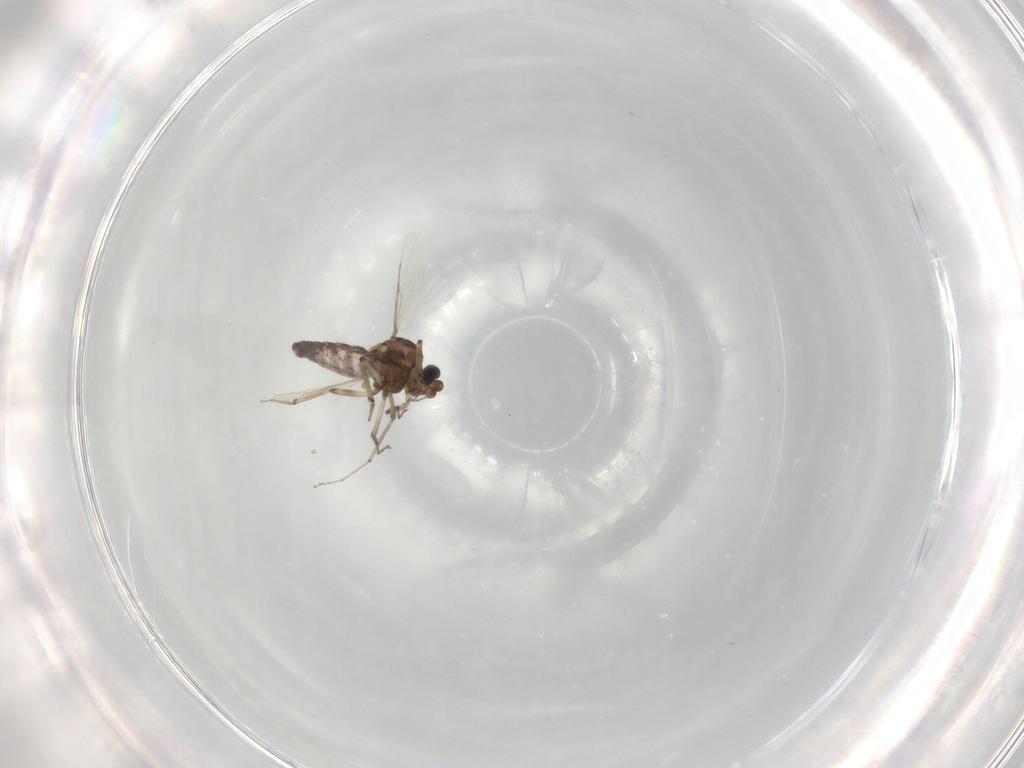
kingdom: Animalia
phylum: Arthropoda
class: Insecta
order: Diptera
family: Ceratopogonidae
